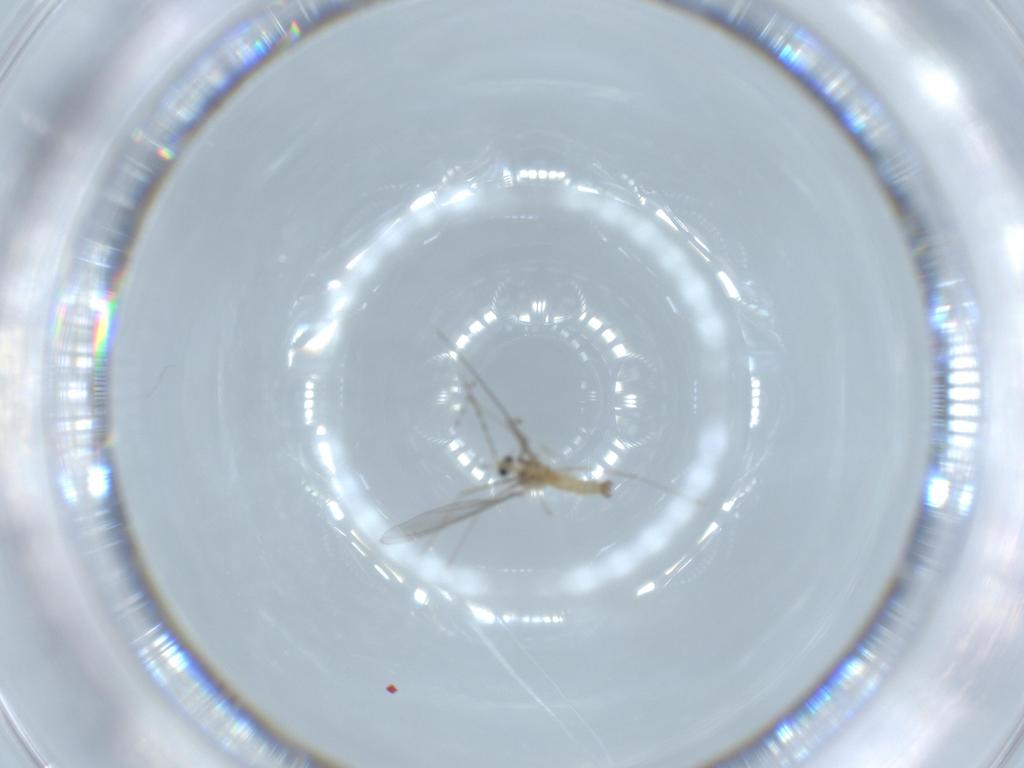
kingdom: Animalia
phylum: Arthropoda
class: Insecta
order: Diptera
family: Cecidomyiidae
